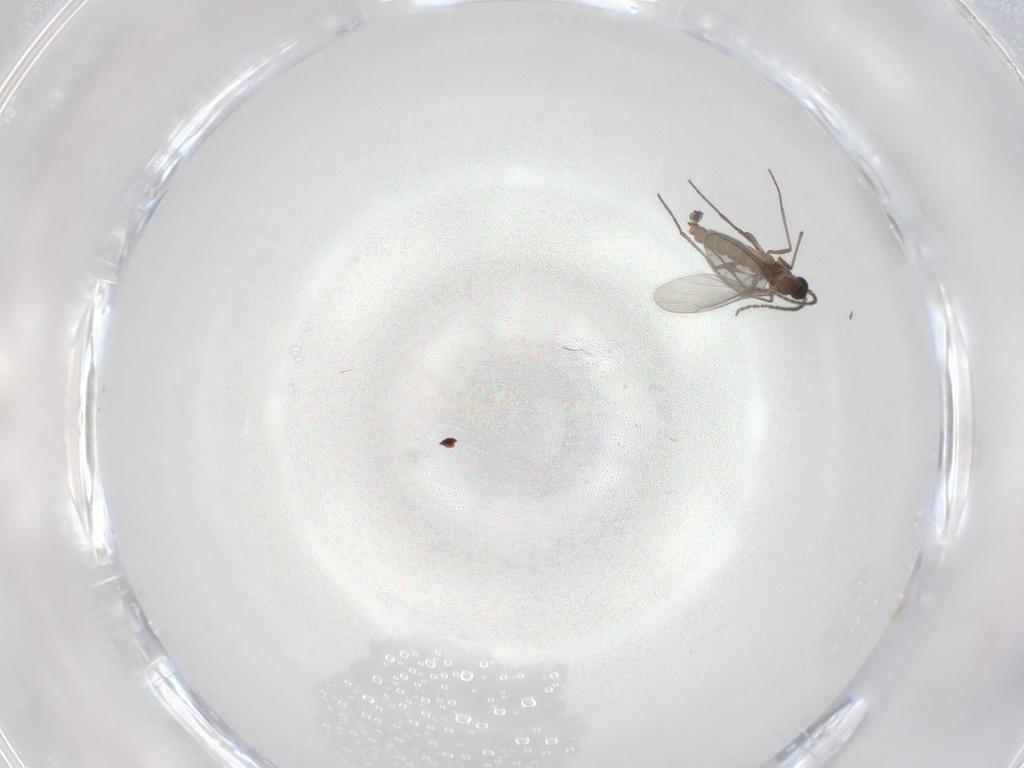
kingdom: Animalia
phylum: Arthropoda
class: Insecta
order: Diptera
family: Sciaridae
